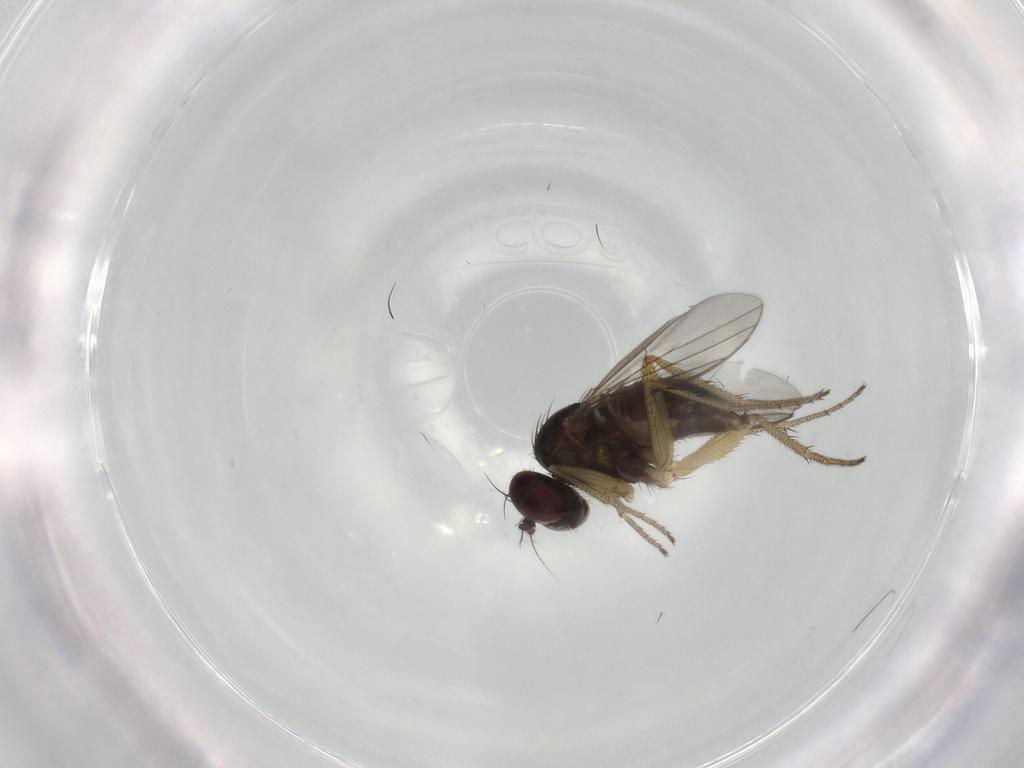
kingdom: Animalia
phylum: Arthropoda
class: Insecta
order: Diptera
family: Dolichopodidae
